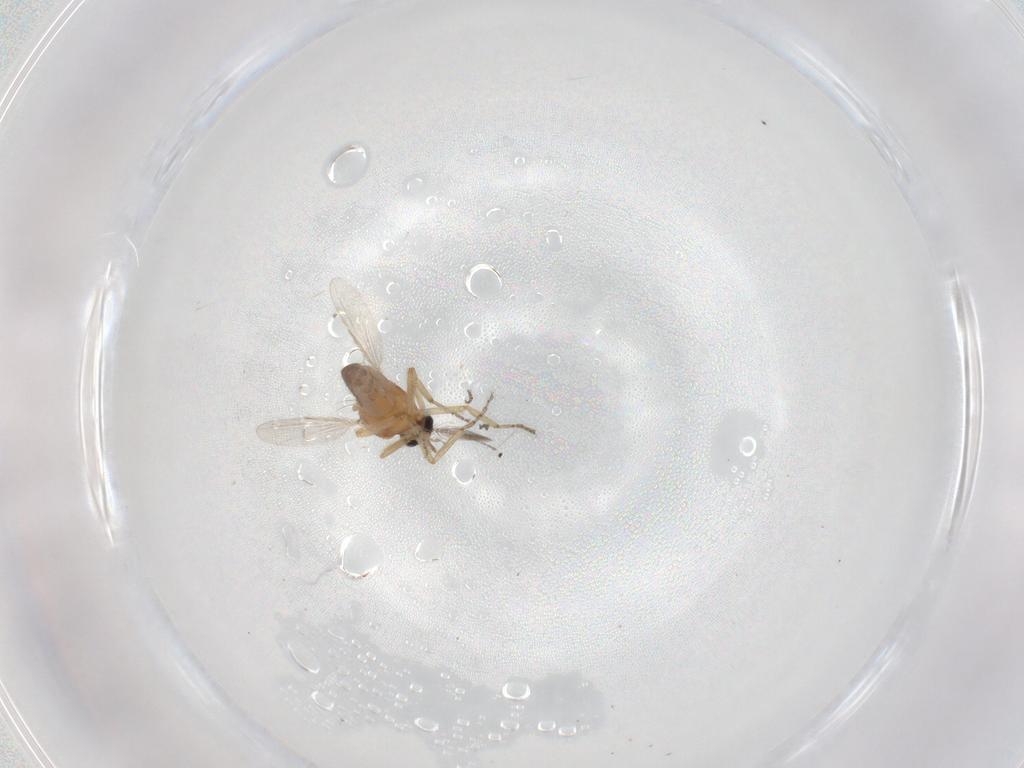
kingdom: Animalia
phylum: Arthropoda
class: Insecta
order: Diptera
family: Ceratopogonidae
